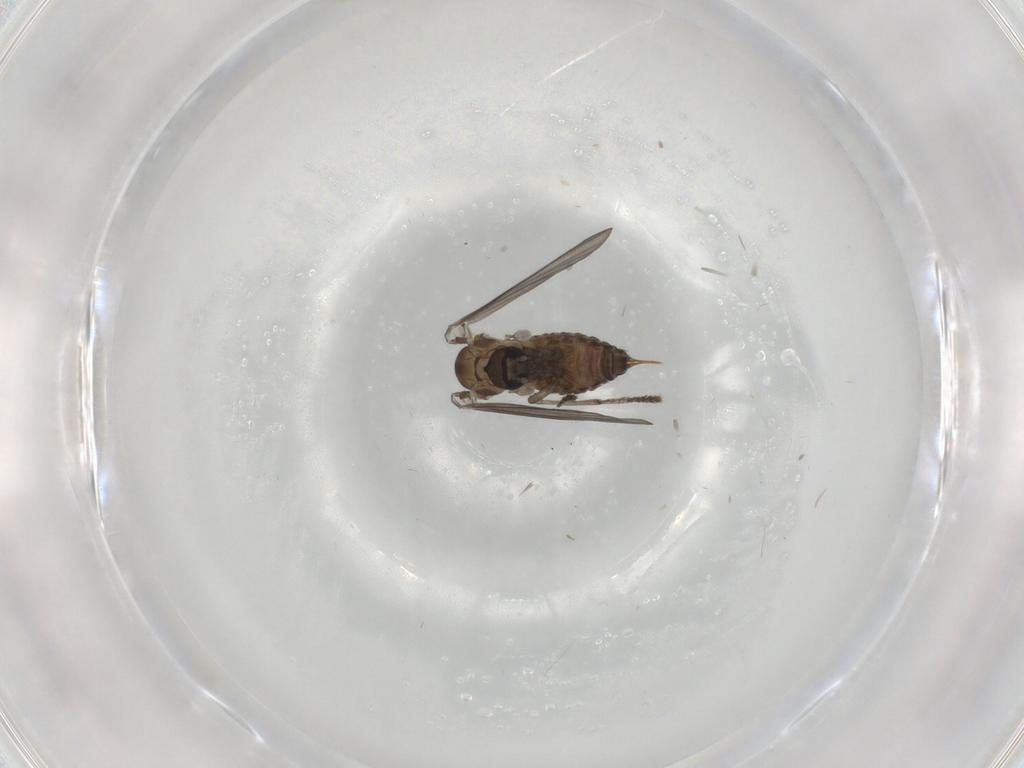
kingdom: Animalia
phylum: Arthropoda
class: Insecta
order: Diptera
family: Psychodidae
